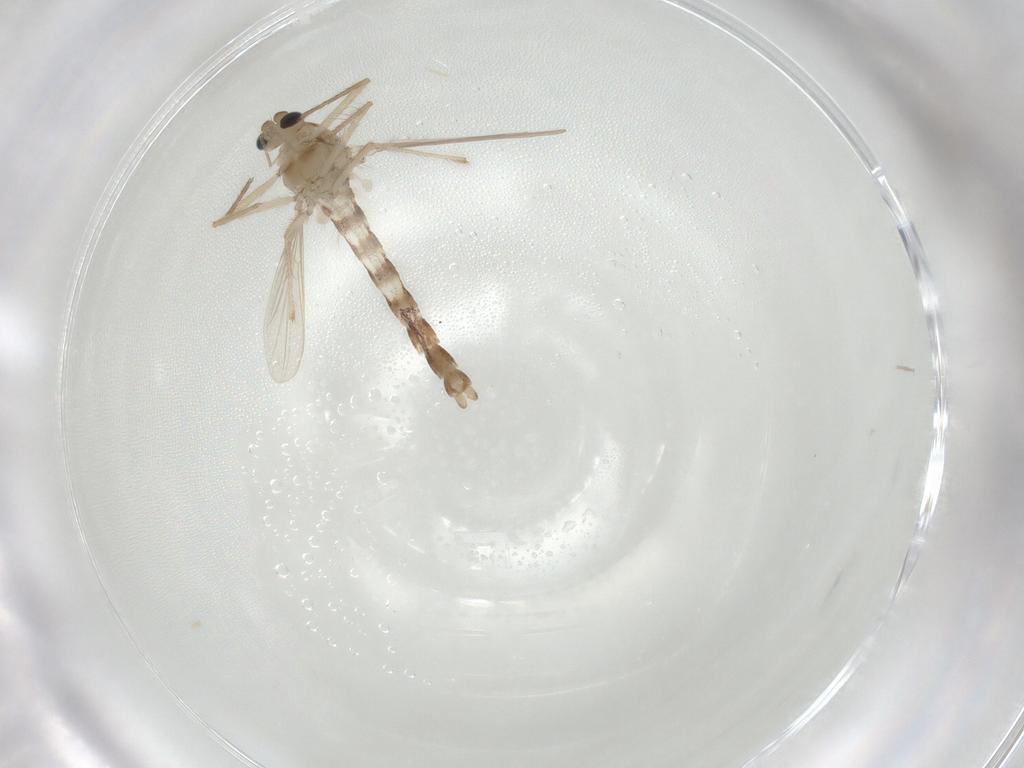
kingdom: Animalia
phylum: Arthropoda
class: Insecta
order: Diptera
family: Chironomidae
